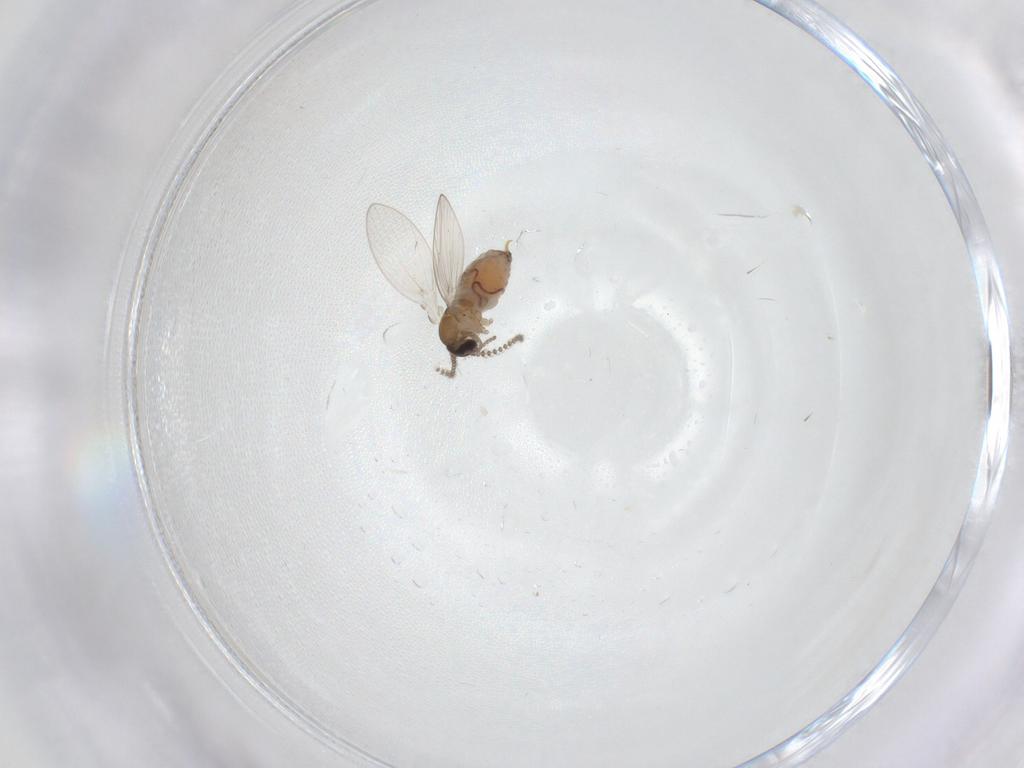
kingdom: Animalia
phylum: Arthropoda
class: Insecta
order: Diptera
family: Psychodidae
